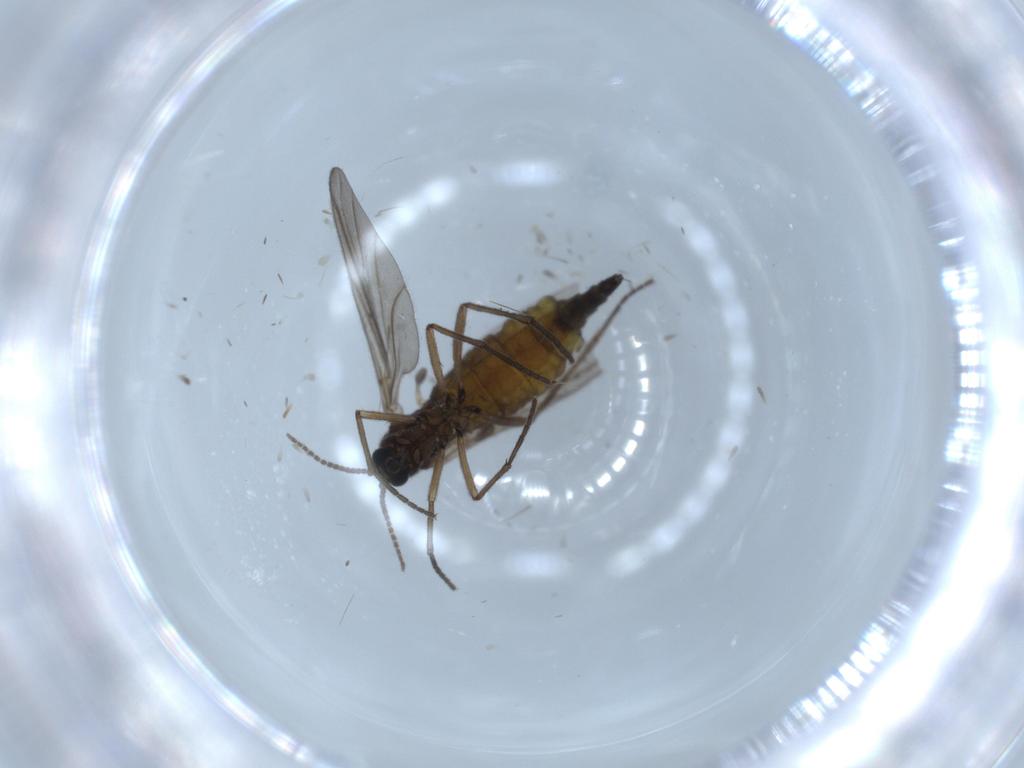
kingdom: Animalia
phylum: Arthropoda
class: Insecta
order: Diptera
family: Sciaridae
